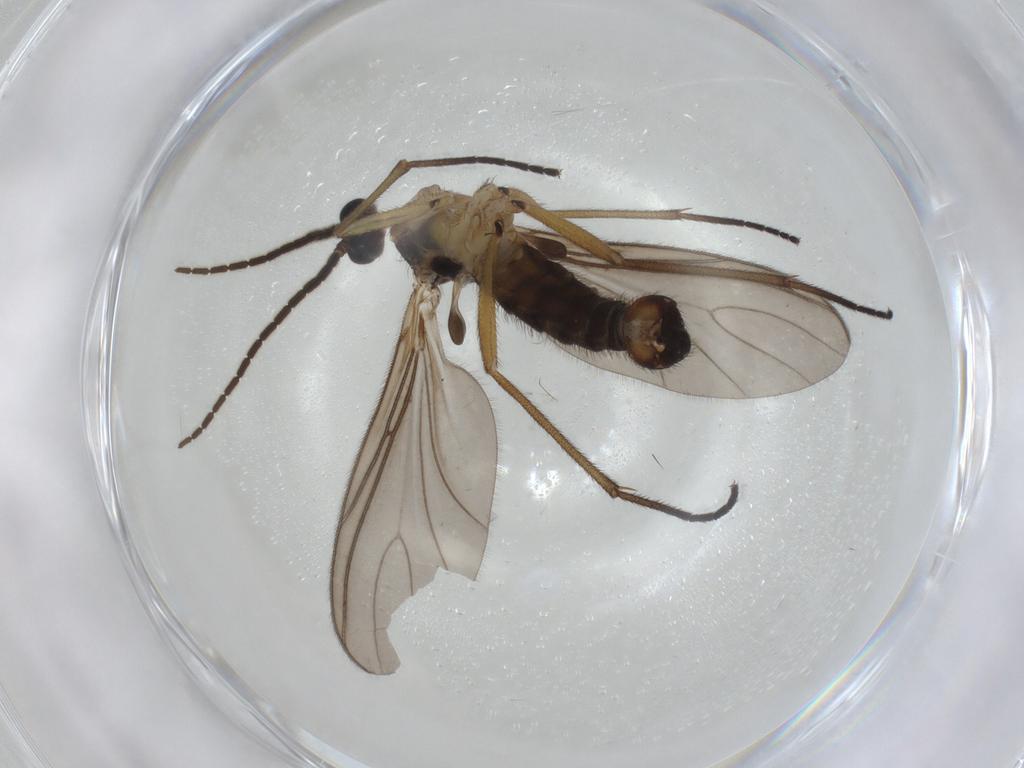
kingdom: Animalia
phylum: Arthropoda
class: Insecta
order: Diptera
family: Sciaridae
